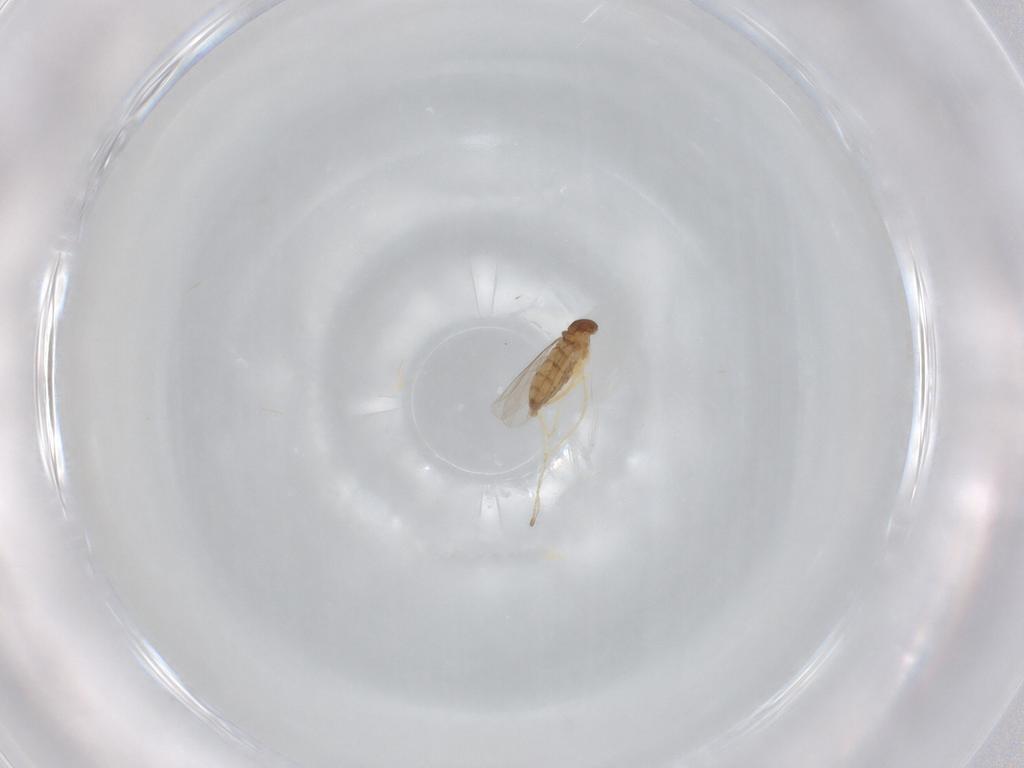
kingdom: Animalia
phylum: Arthropoda
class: Insecta
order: Diptera
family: Cecidomyiidae
